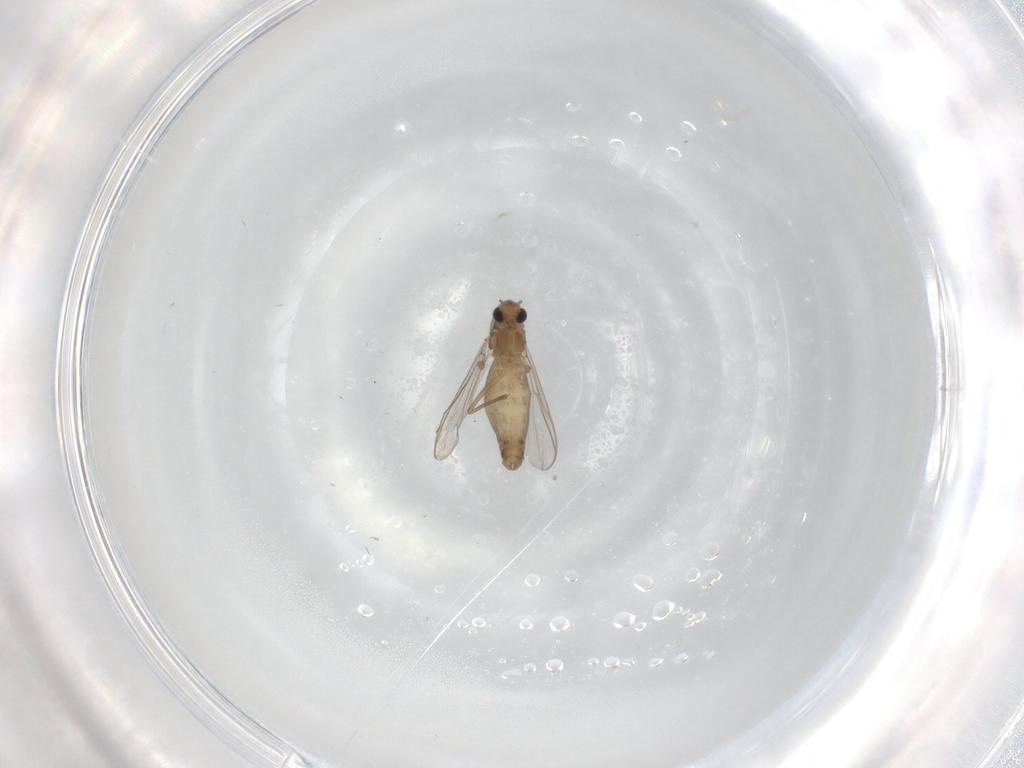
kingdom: Animalia
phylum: Arthropoda
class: Insecta
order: Diptera
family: Chironomidae
